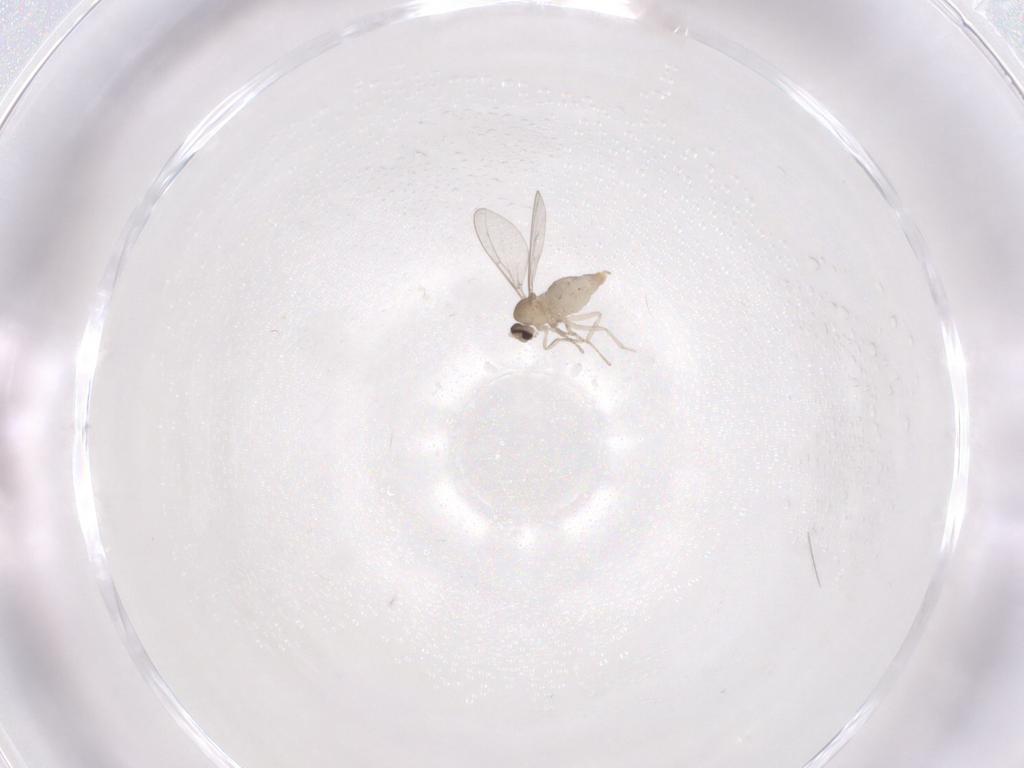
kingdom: Animalia
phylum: Arthropoda
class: Insecta
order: Diptera
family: Cecidomyiidae
